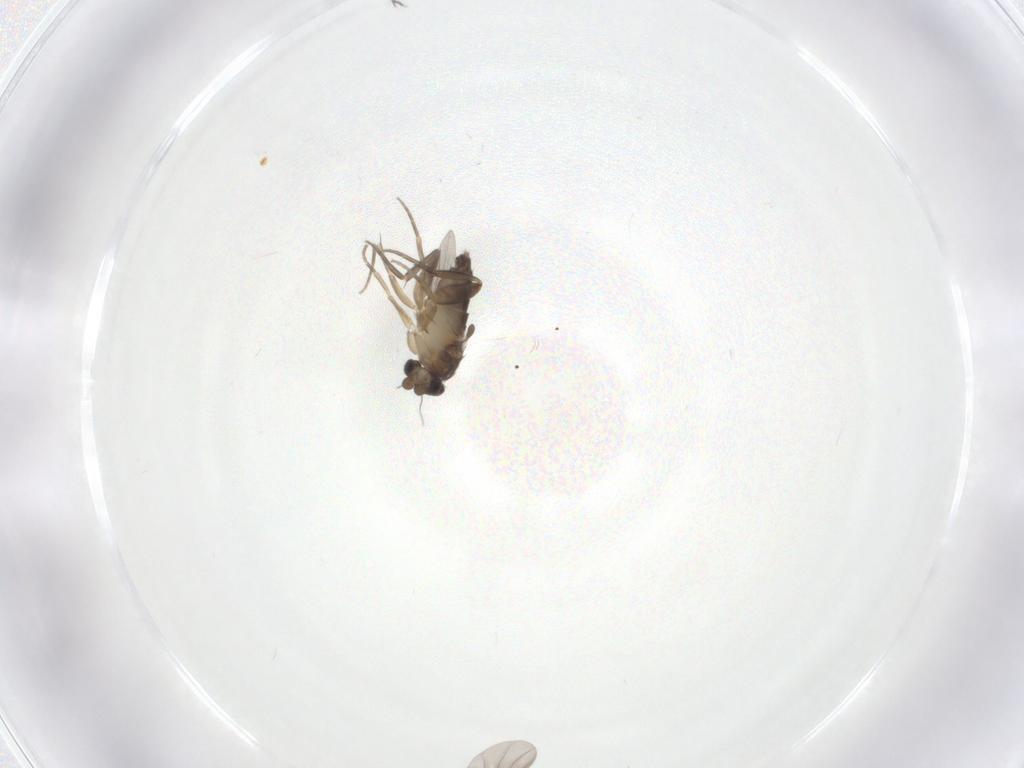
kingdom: Animalia
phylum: Arthropoda
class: Insecta
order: Diptera
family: Phoridae
